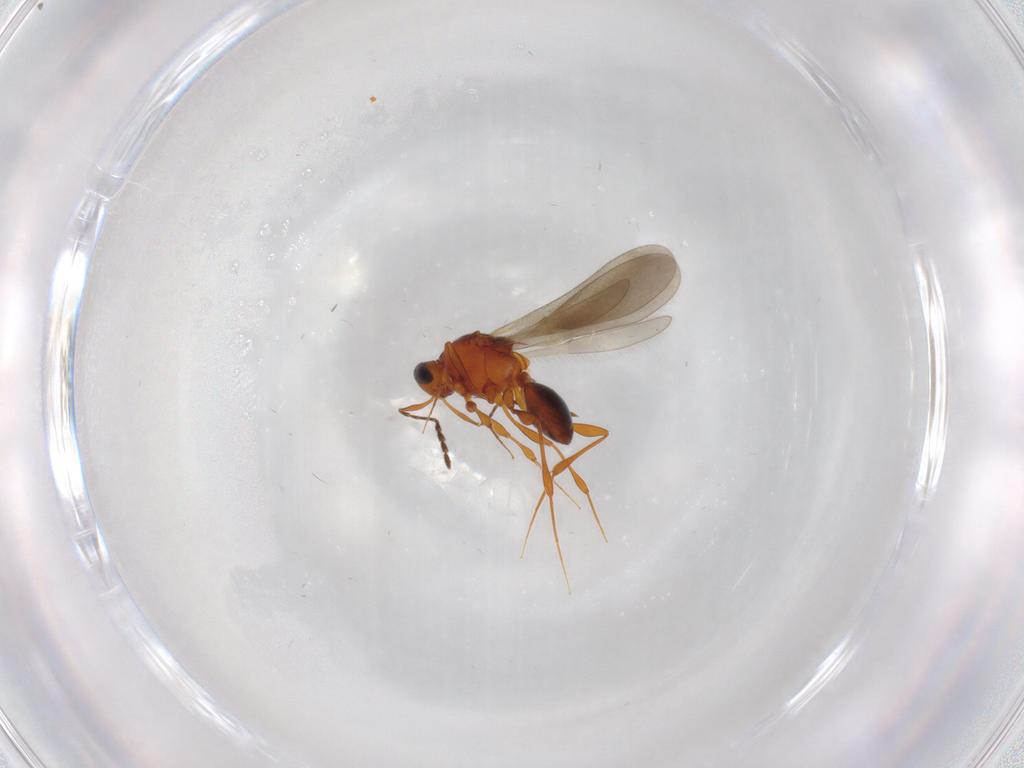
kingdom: Animalia
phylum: Arthropoda
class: Insecta
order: Hymenoptera
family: Platygastridae
